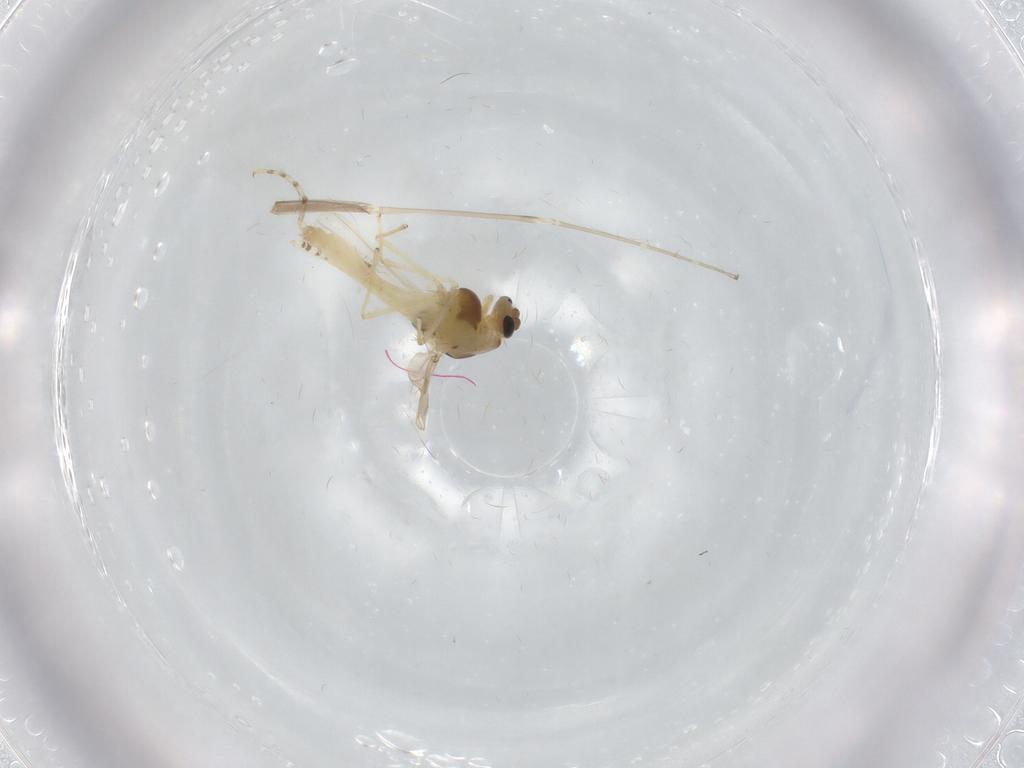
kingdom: Animalia
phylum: Arthropoda
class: Insecta
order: Diptera
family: Chironomidae
